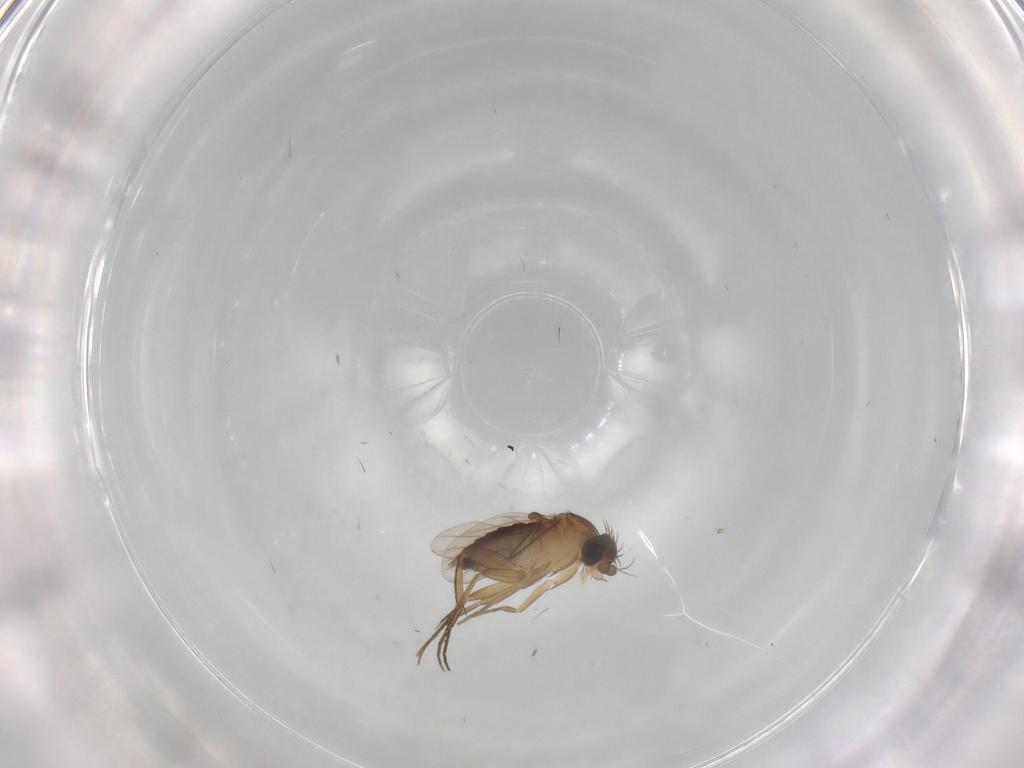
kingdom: Animalia
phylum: Arthropoda
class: Insecta
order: Diptera
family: Phoridae
